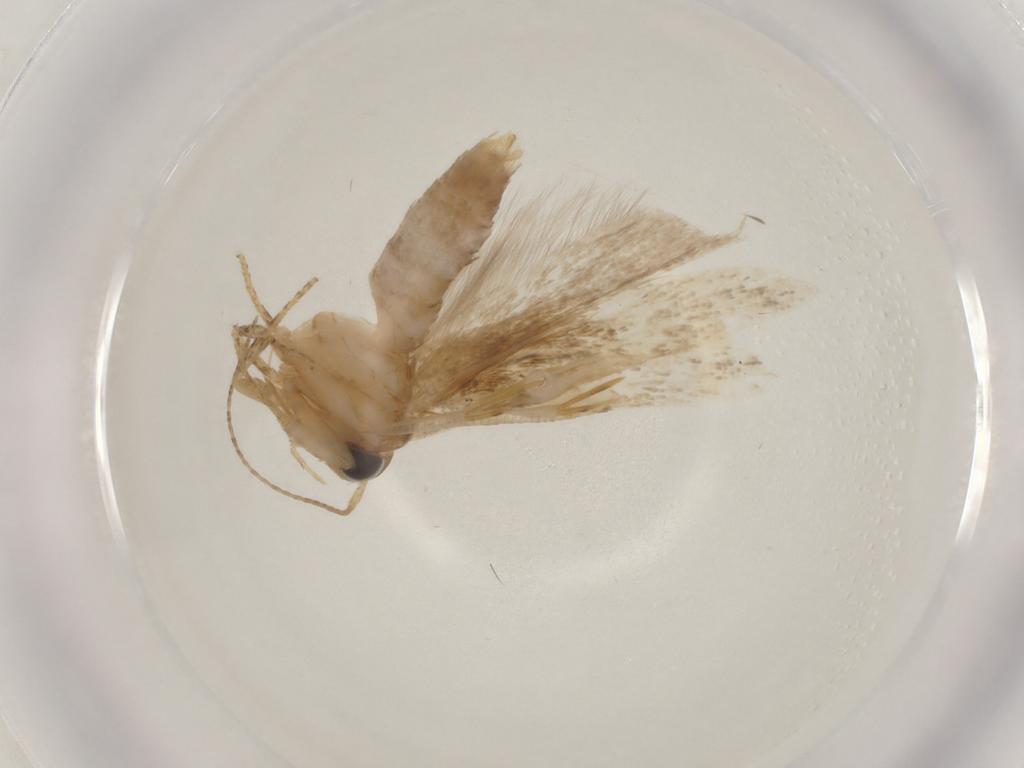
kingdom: Animalia
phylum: Arthropoda
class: Insecta
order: Lepidoptera
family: Gelechiidae
